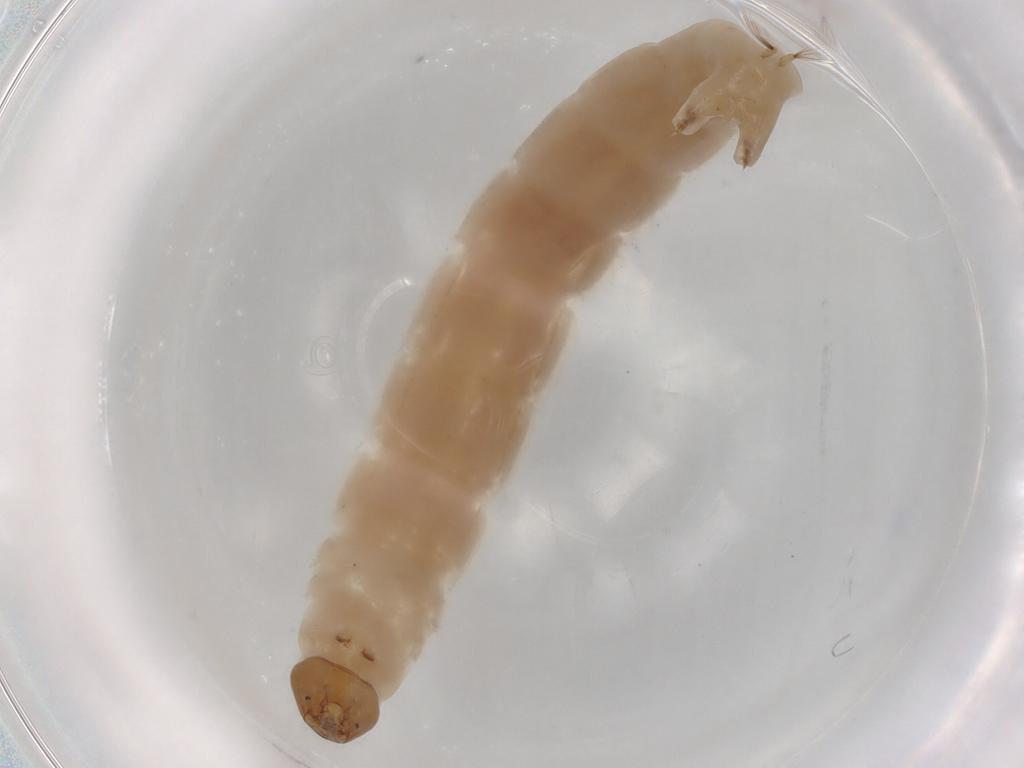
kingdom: Animalia
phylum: Arthropoda
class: Insecta
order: Diptera
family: Chironomidae
